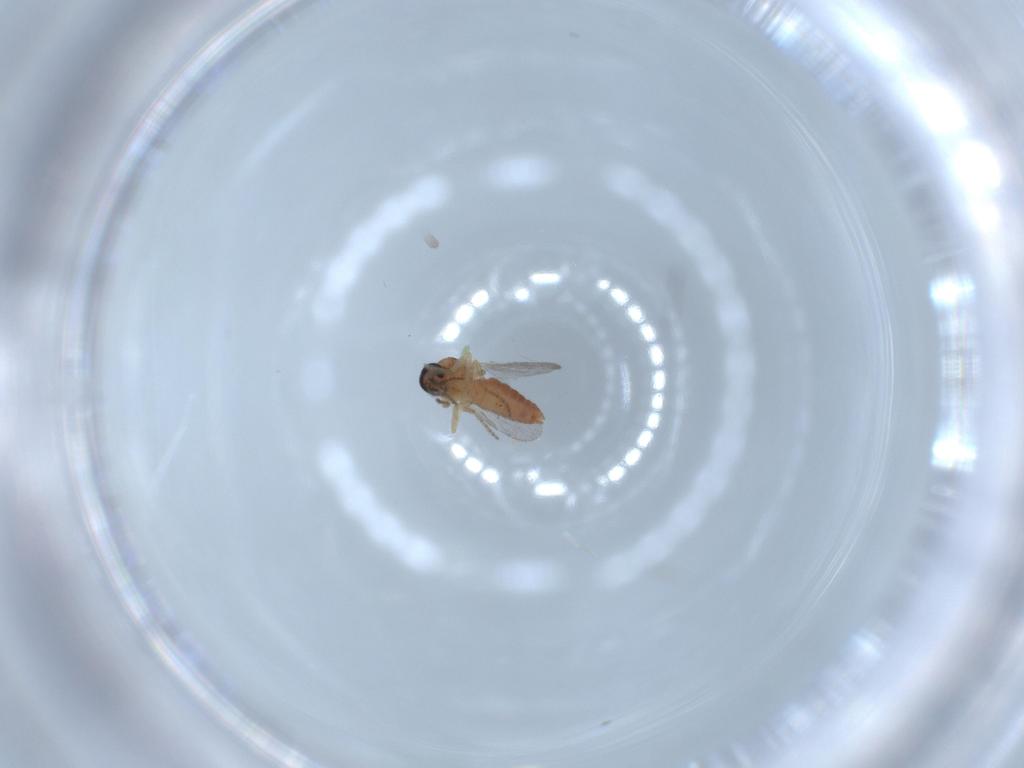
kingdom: Animalia
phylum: Arthropoda
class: Insecta
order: Diptera
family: Ceratopogonidae
